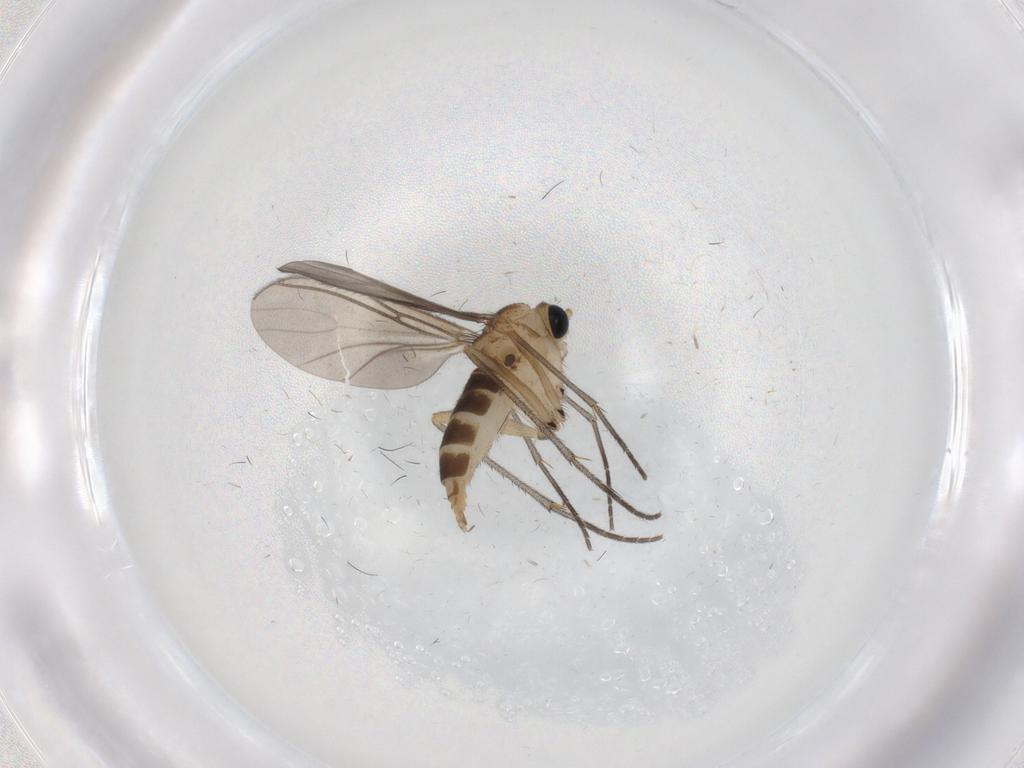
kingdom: Animalia
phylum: Arthropoda
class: Insecta
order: Diptera
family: Sciaridae
